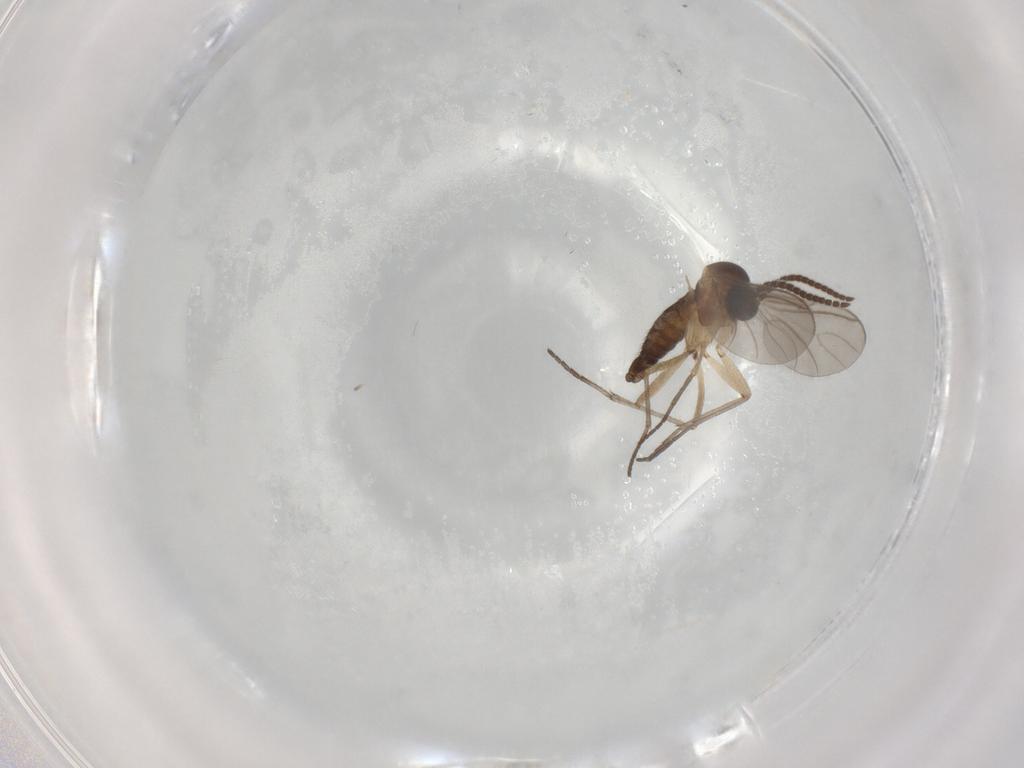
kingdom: Animalia
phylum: Arthropoda
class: Insecta
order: Diptera
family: Sciaridae
